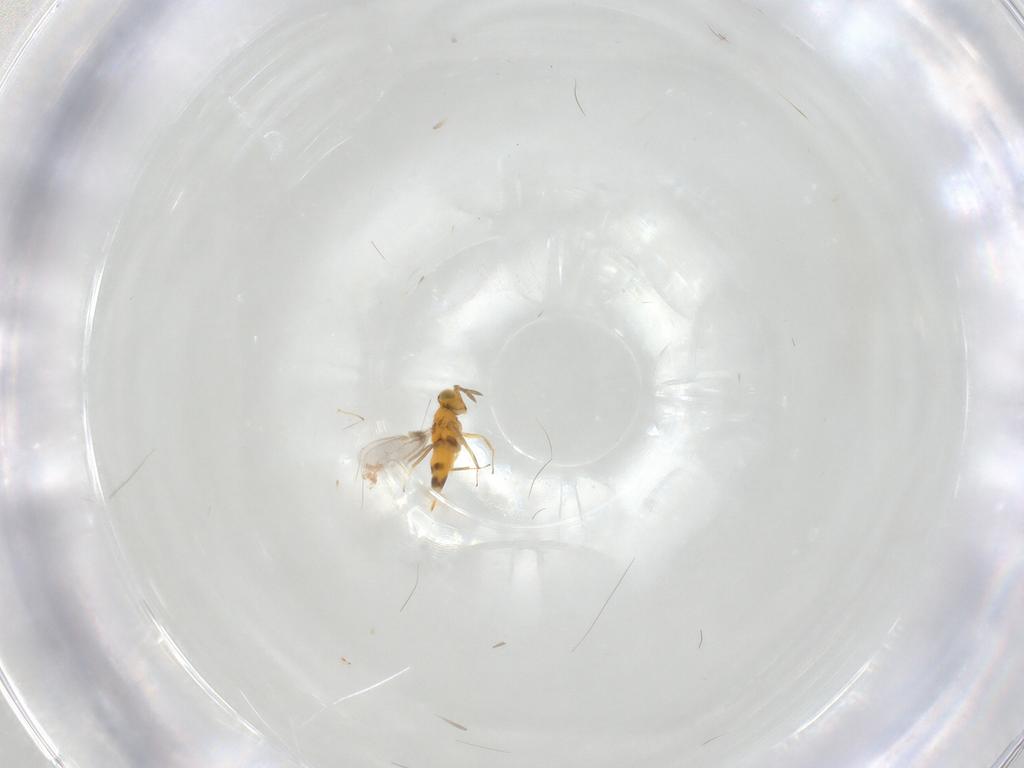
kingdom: Animalia
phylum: Arthropoda
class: Insecta
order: Hymenoptera
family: Aphelinidae
